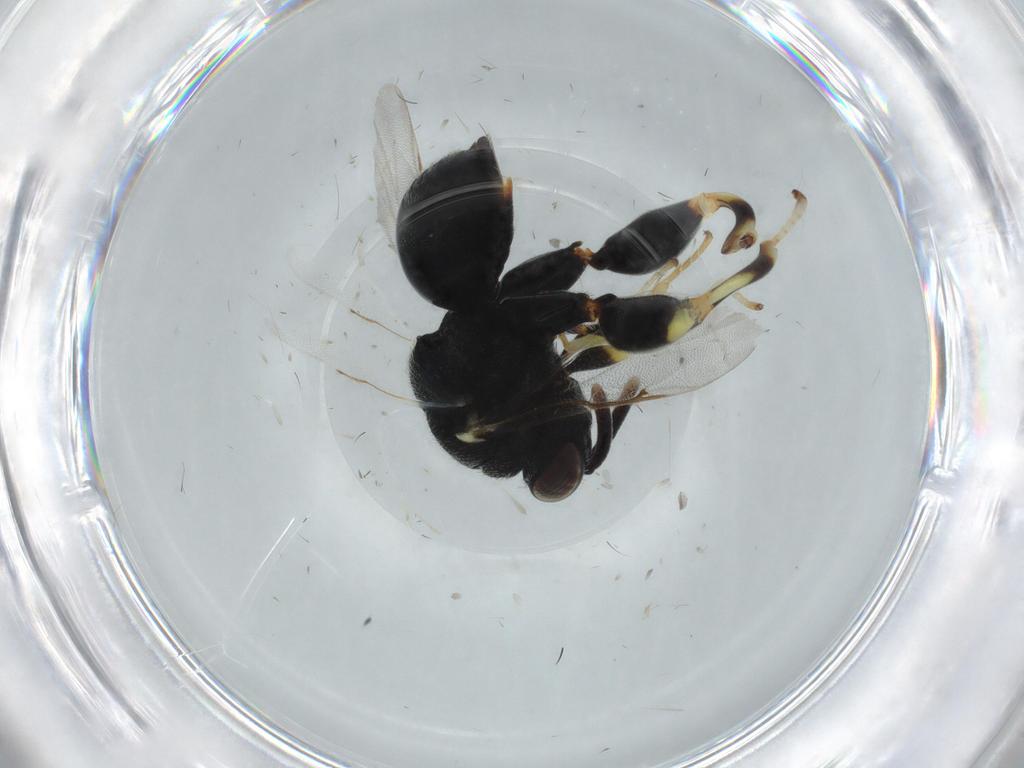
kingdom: Animalia
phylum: Arthropoda
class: Insecta
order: Hymenoptera
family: Chalcididae
